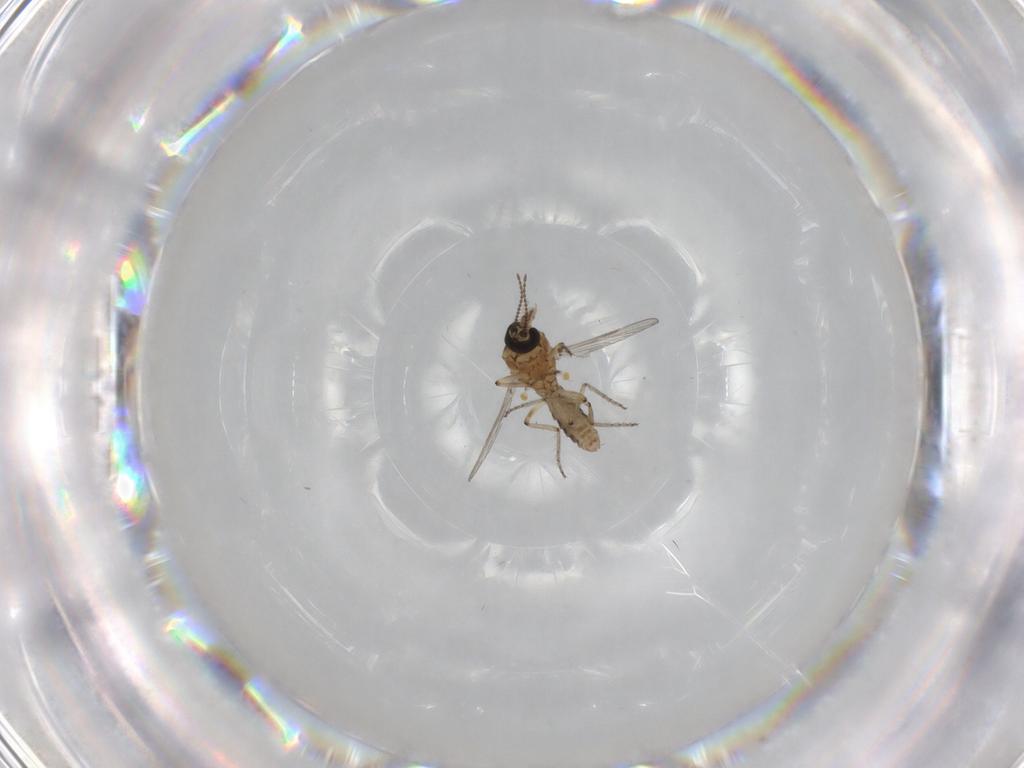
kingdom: Animalia
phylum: Arthropoda
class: Insecta
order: Diptera
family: Ceratopogonidae
